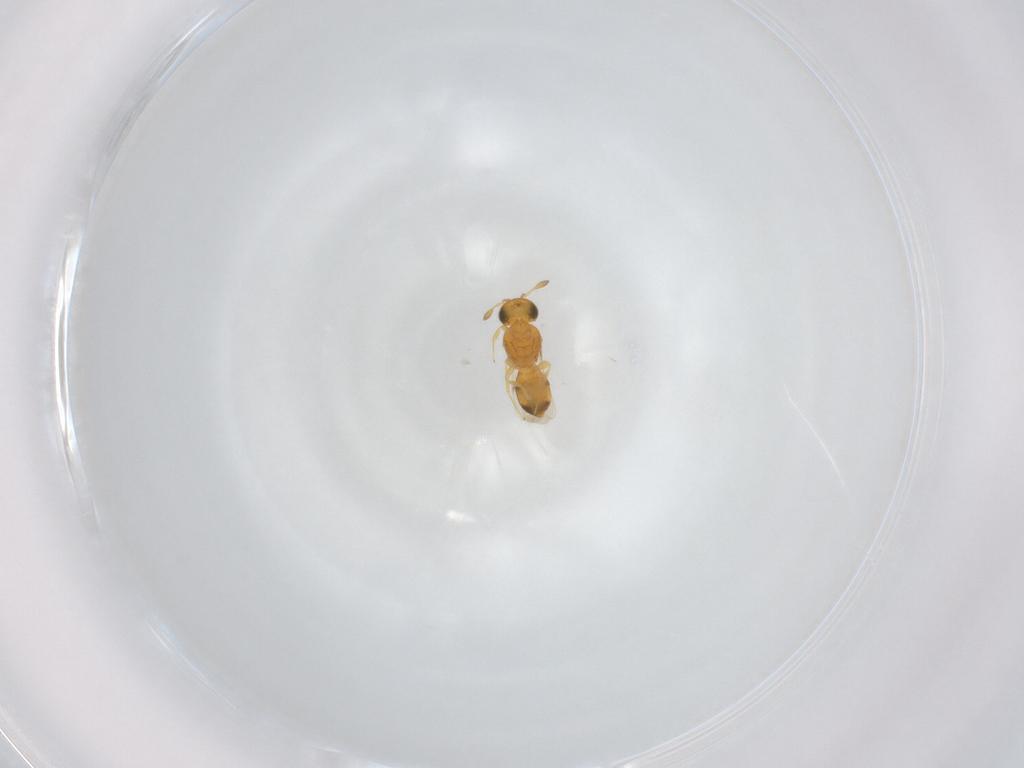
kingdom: Animalia
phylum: Arthropoda
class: Insecta
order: Hymenoptera
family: Scelionidae
